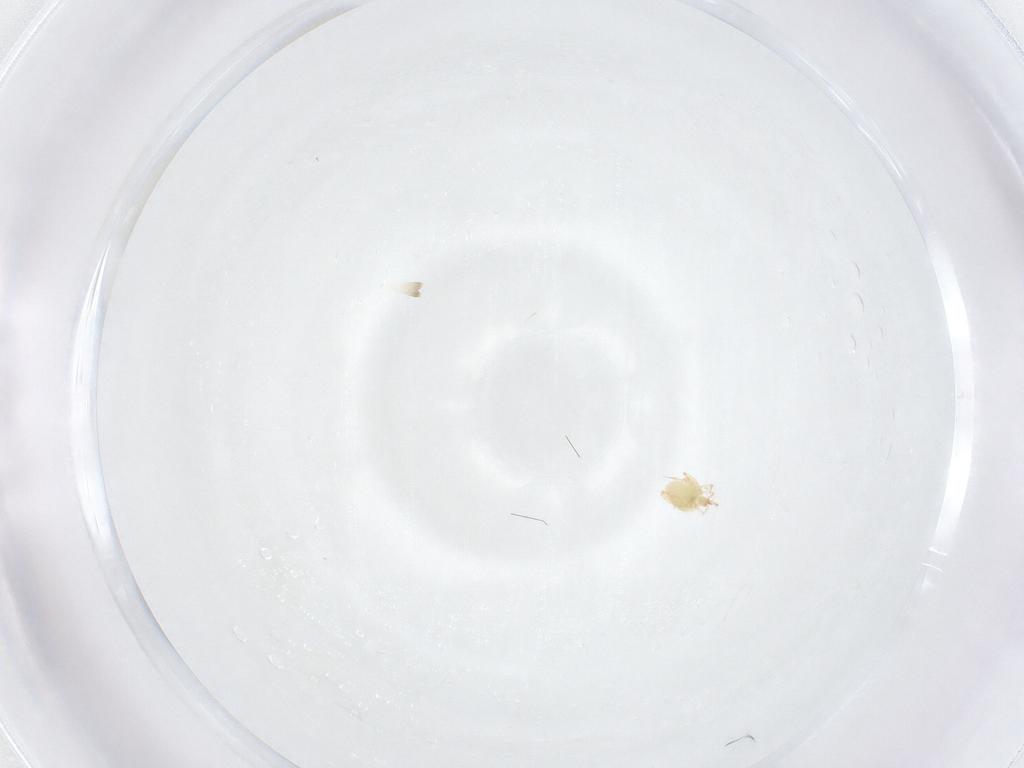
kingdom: Animalia
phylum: Arthropoda
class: Arachnida
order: Trombidiformes
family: Cunaxidae
